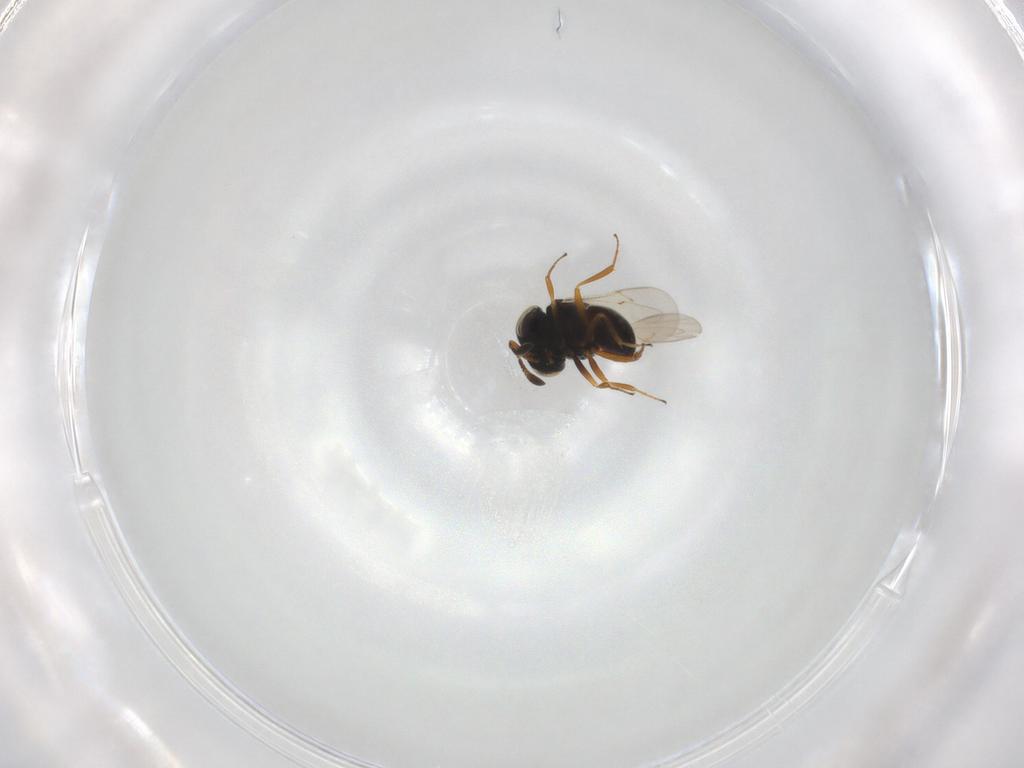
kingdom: Animalia
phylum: Arthropoda
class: Insecta
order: Hymenoptera
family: Scelionidae
